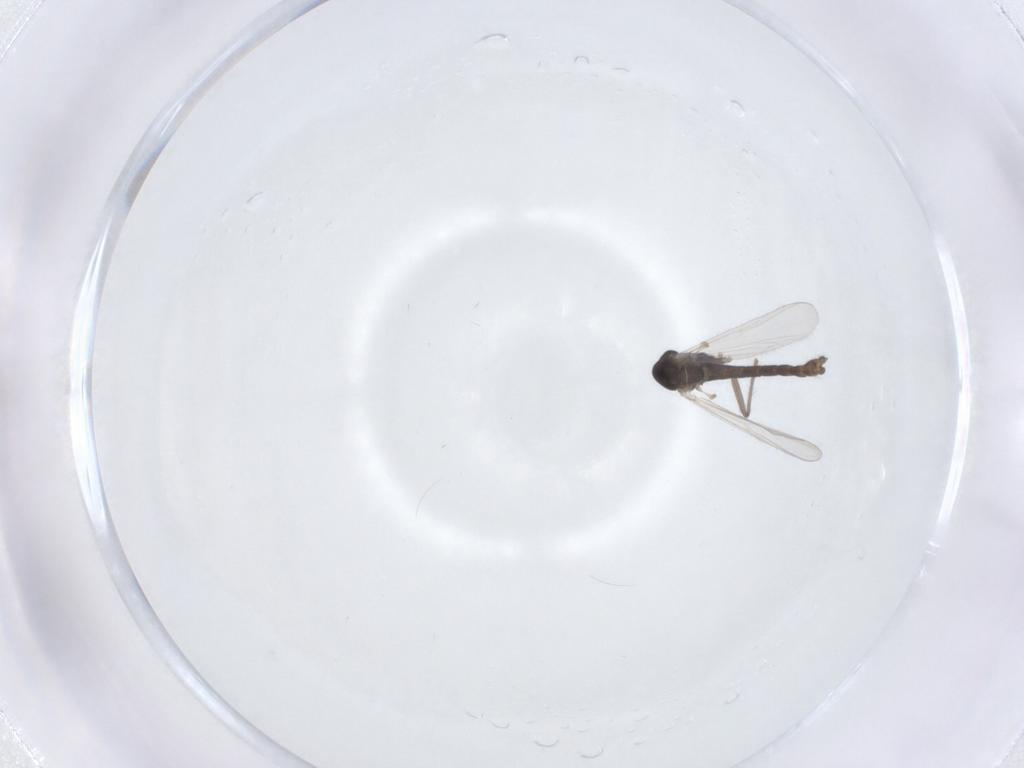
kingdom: Animalia
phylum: Arthropoda
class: Insecta
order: Diptera
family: Chironomidae
